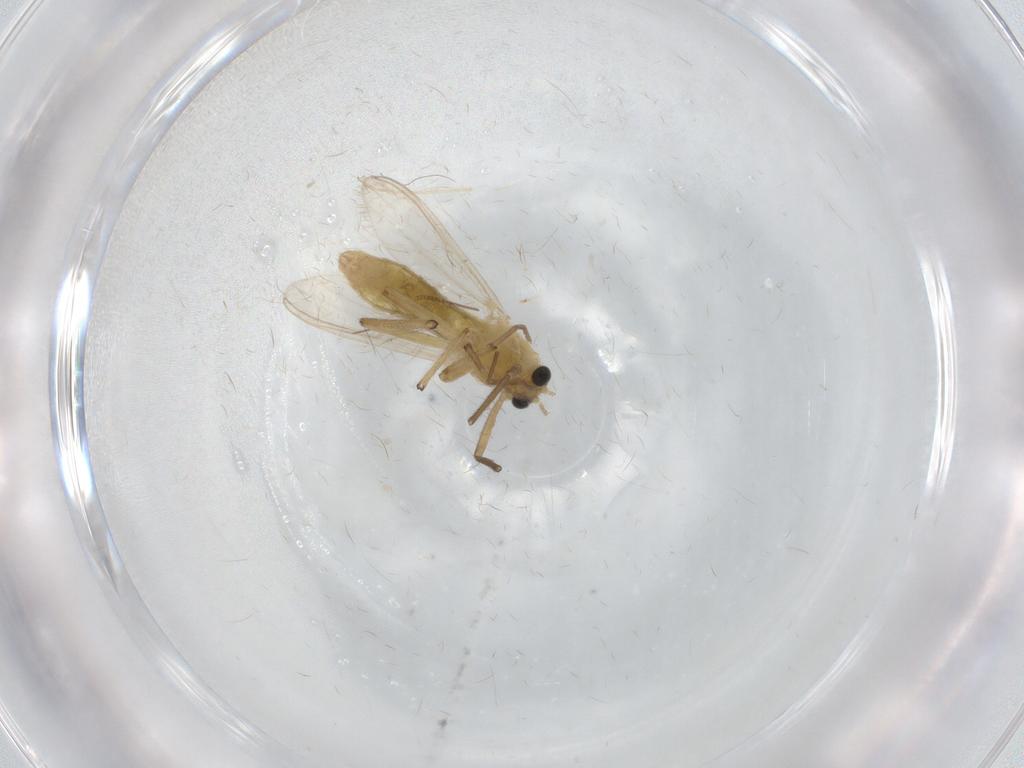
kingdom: Animalia
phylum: Arthropoda
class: Insecta
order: Diptera
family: Chironomidae
